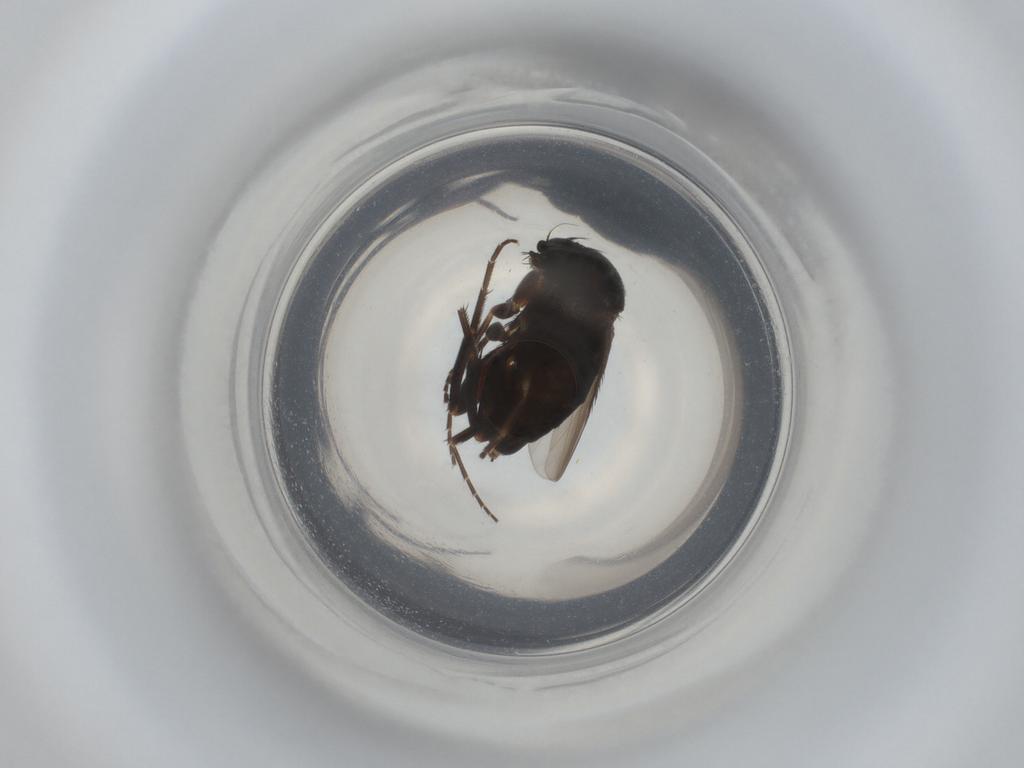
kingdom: Animalia
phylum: Arthropoda
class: Insecta
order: Diptera
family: Phoridae
